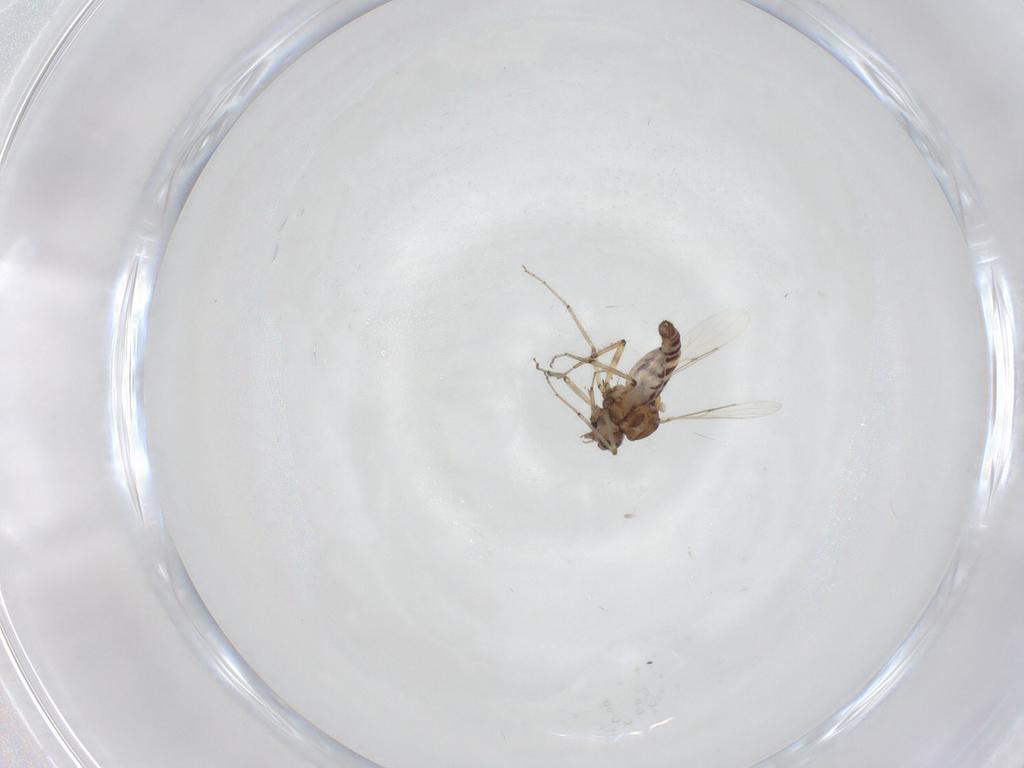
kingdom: Animalia
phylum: Arthropoda
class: Insecta
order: Diptera
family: Ceratopogonidae
